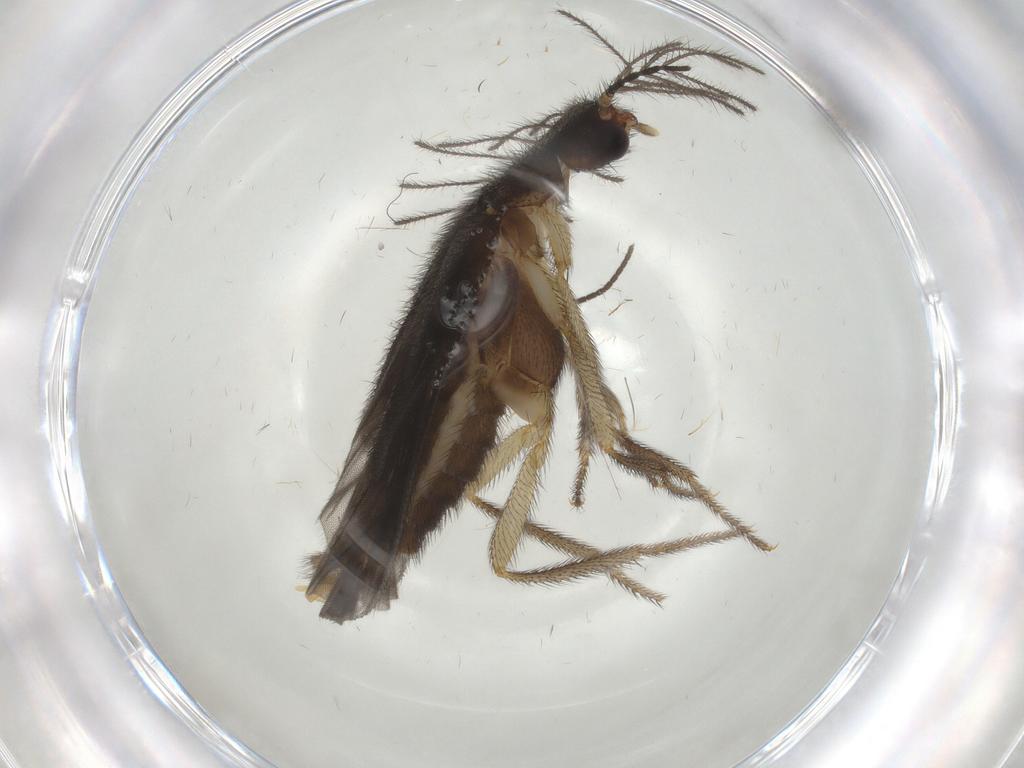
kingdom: Animalia
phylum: Arthropoda
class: Insecta
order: Coleoptera
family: Phengodidae
